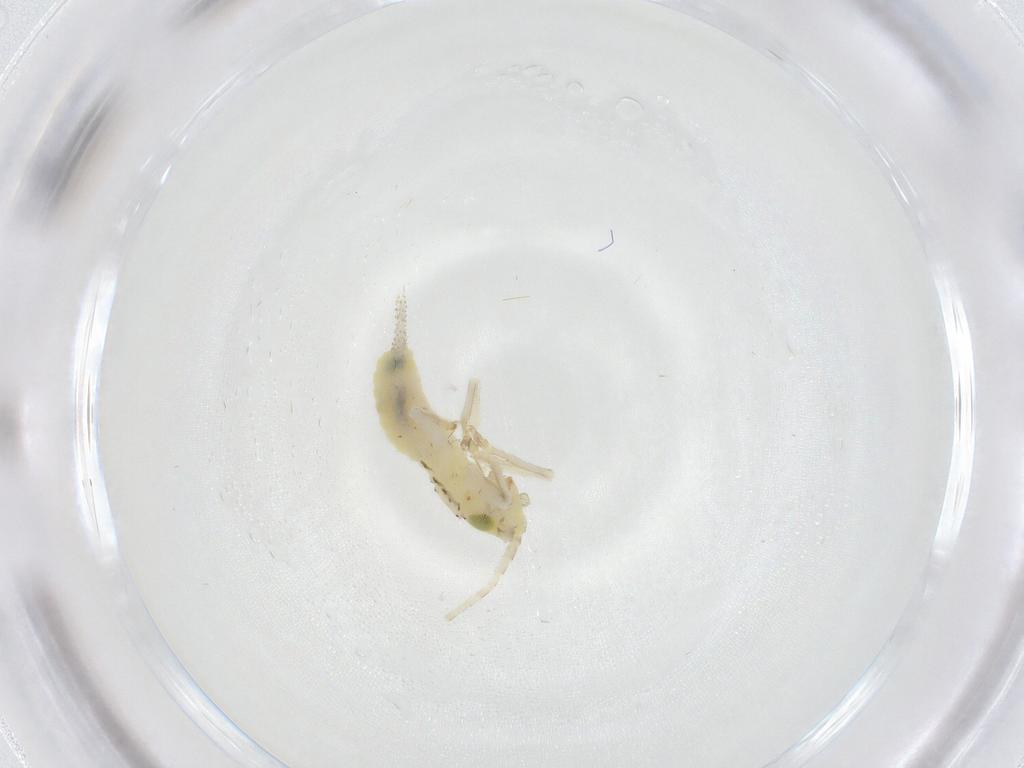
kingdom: Animalia
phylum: Arthropoda
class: Insecta
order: Orthoptera
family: Trigonidiidae
